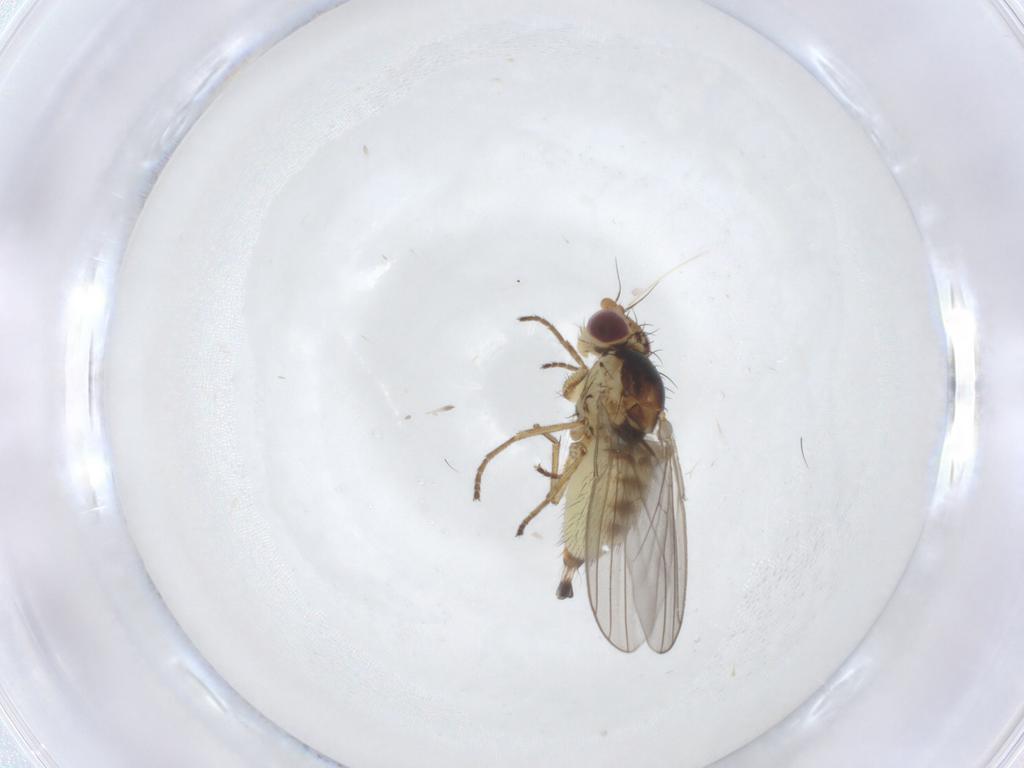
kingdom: Animalia
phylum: Arthropoda
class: Insecta
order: Diptera
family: Agromyzidae
